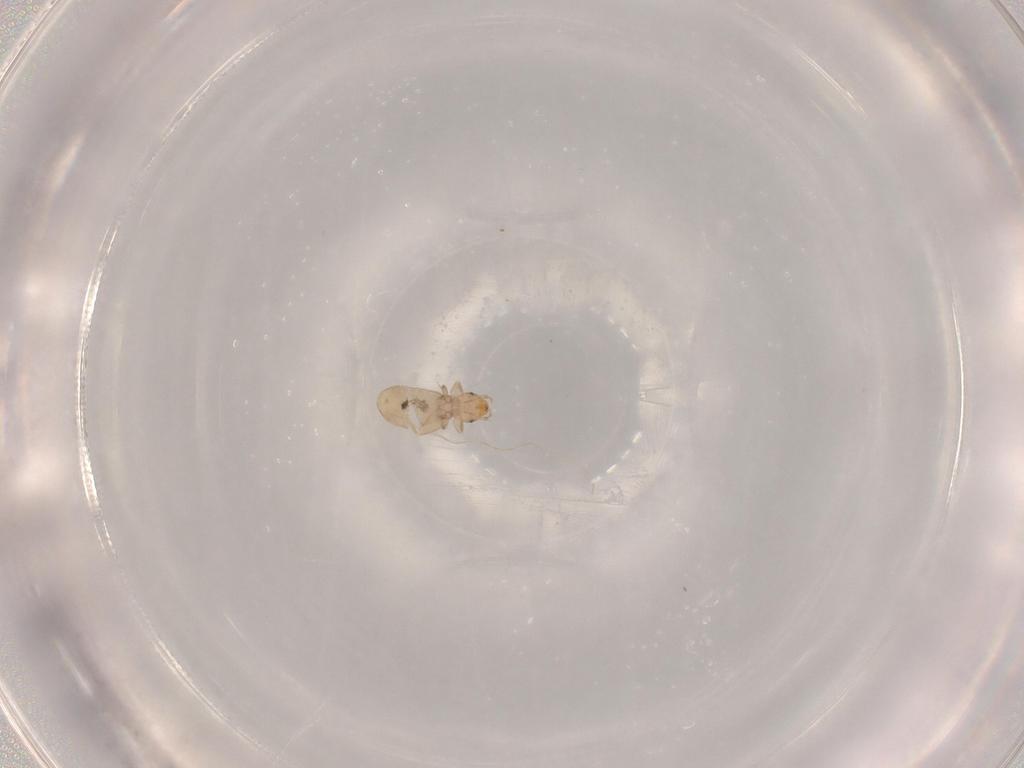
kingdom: Animalia
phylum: Arthropoda
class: Insecta
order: Psocodea
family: Liposcelididae
